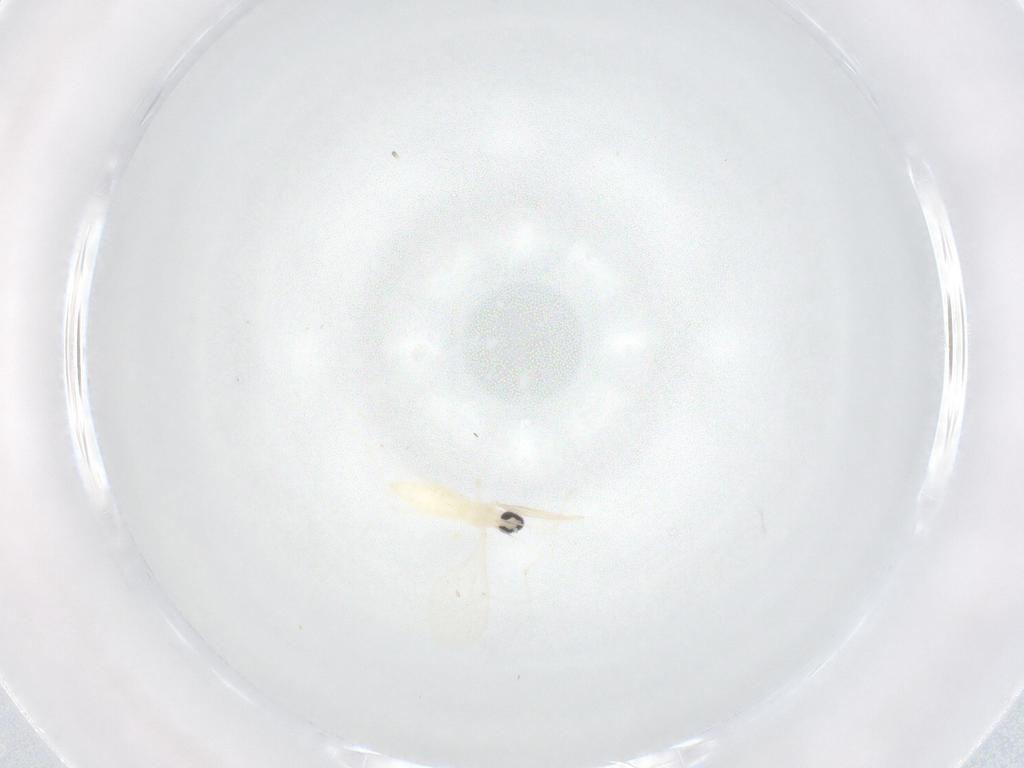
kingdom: Animalia
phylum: Arthropoda
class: Insecta
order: Diptera
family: Cecidomyiidae
